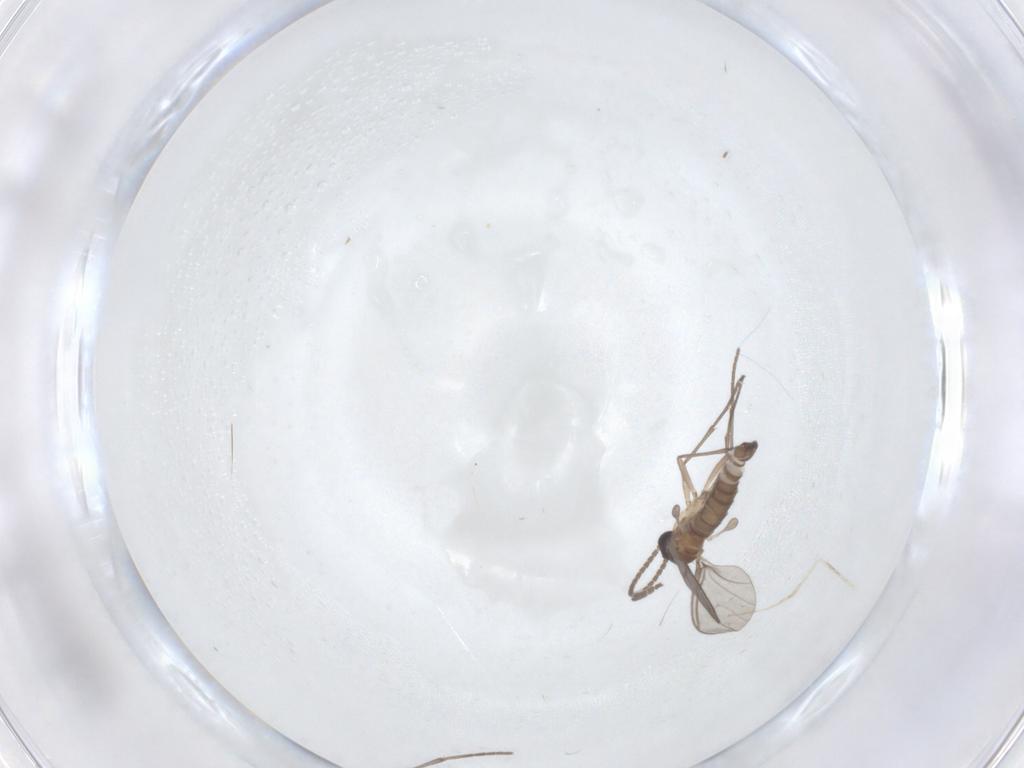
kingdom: Animalia
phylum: Arthropoda
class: Insecta
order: Diptera
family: Sciaridae
